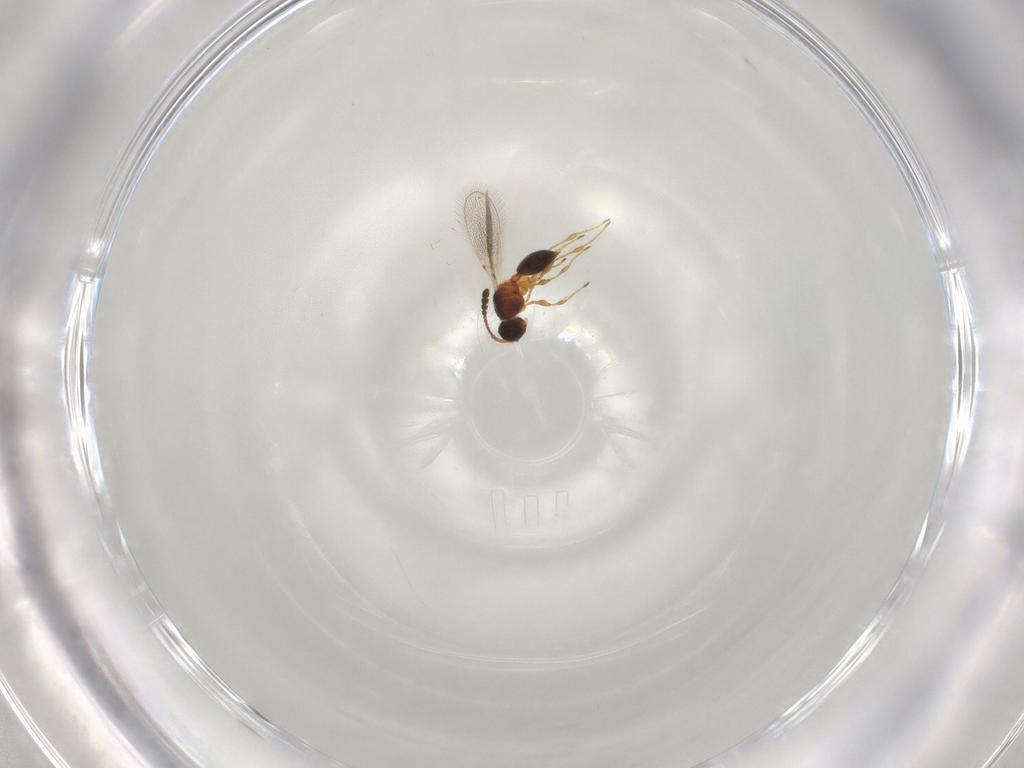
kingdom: Animalia
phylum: Arthropoda
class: Insecta
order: Hymenoptera
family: Diapriidae
